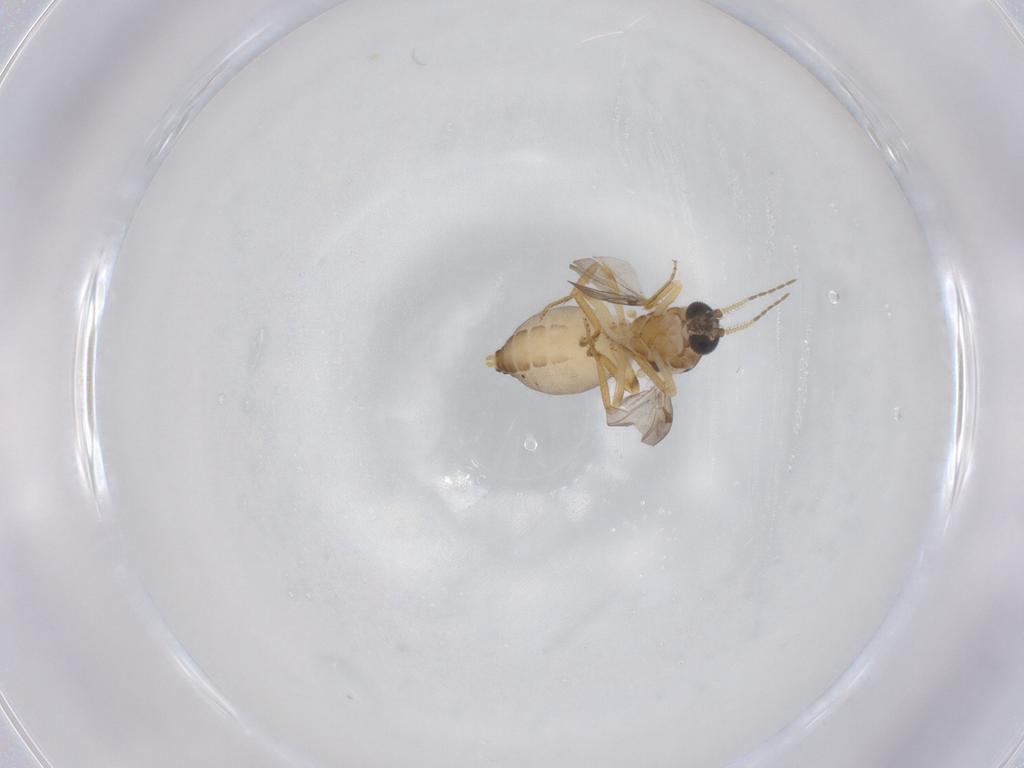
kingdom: Animalia
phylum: Arthropoda
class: Insecta
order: Diptera
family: Ceratopogonidae
